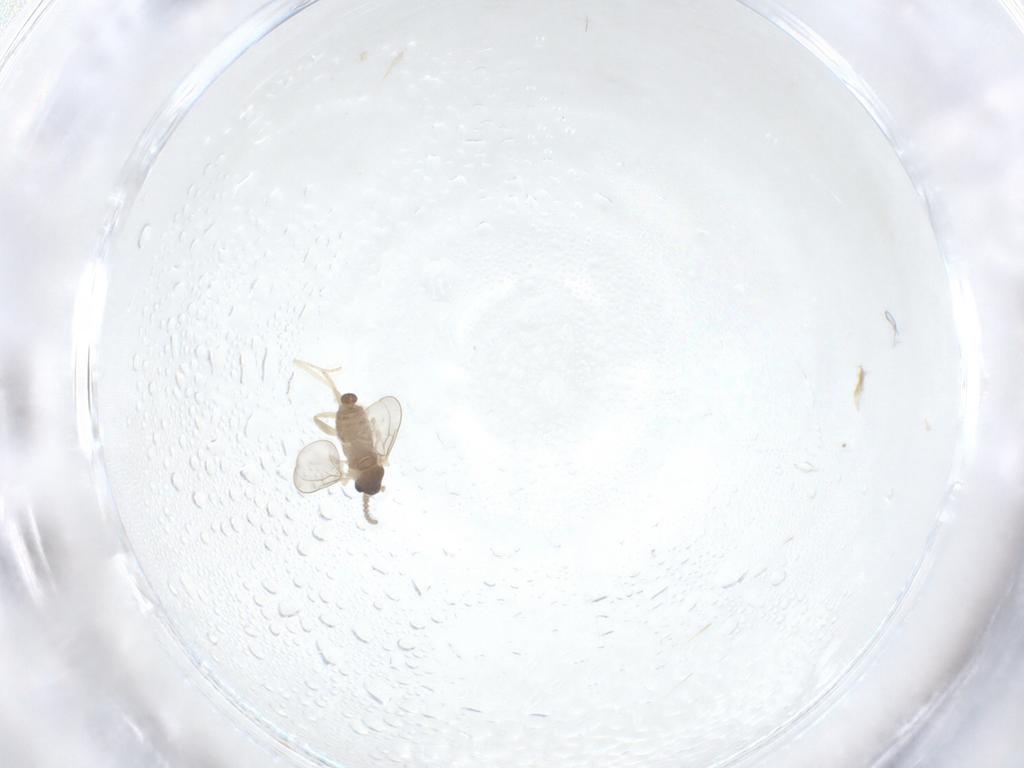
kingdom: Animalia
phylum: Arthropoda
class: Insecta
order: Diptera
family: Cecidomyiidae
